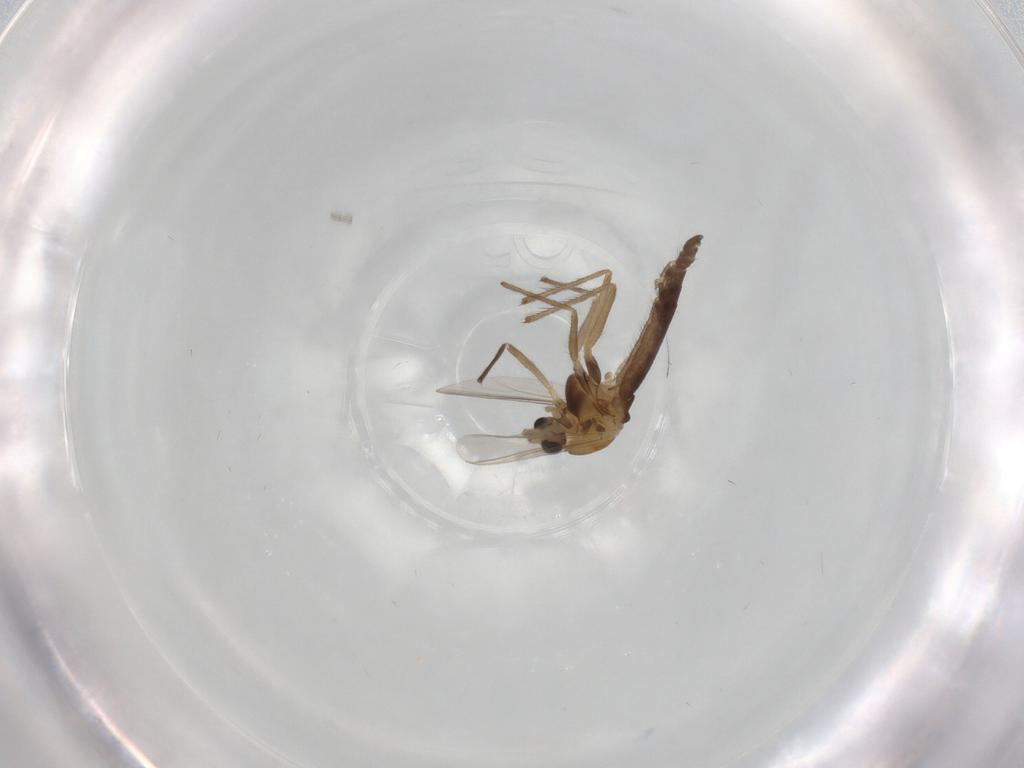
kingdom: Animalia
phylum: Arthropoda
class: Insecta
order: Diptera
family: Chironomidae
